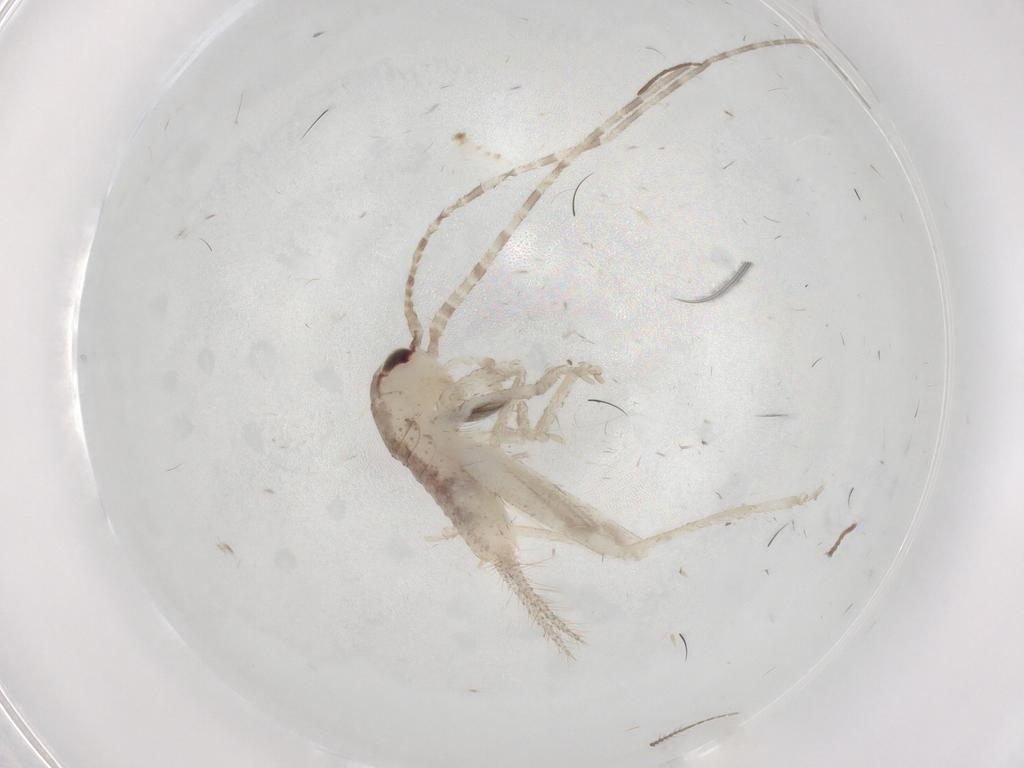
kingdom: Animalia
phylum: Arthropoda
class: Insecta
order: Orthoptera
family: Gryllidae
